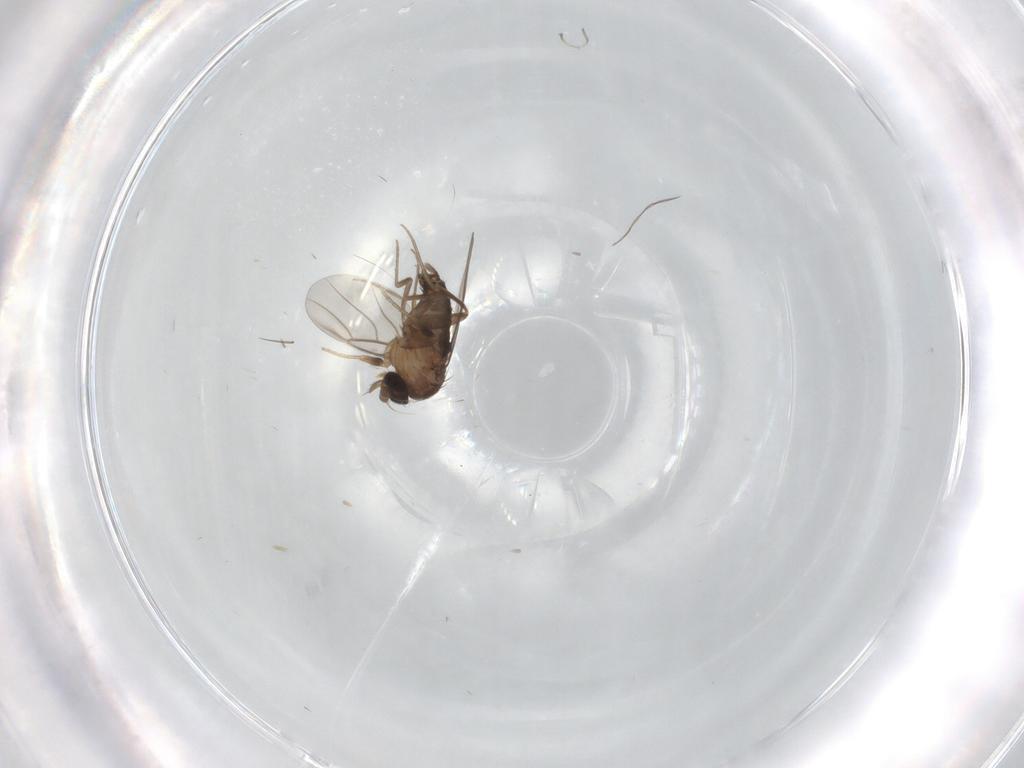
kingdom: Animalia
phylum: Arthropoda
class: Insecta
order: Diptera
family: Phoridae
